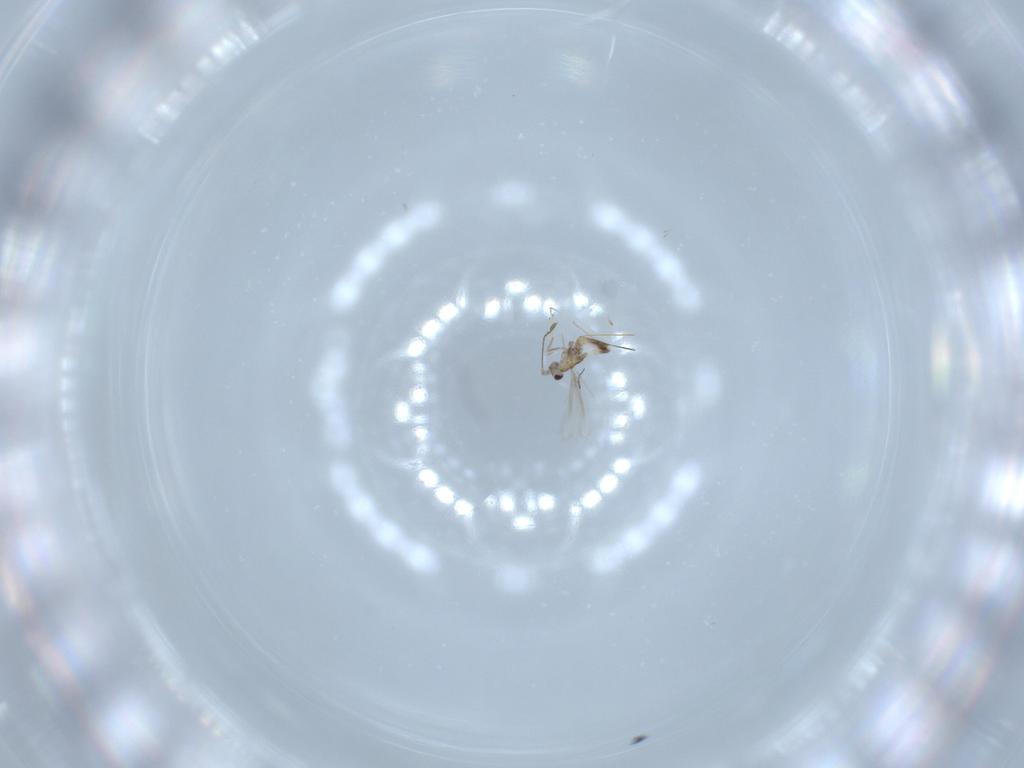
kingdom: Animalia
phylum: Arthropoda
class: Insecta
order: Hymenoptera
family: Mymaridae
